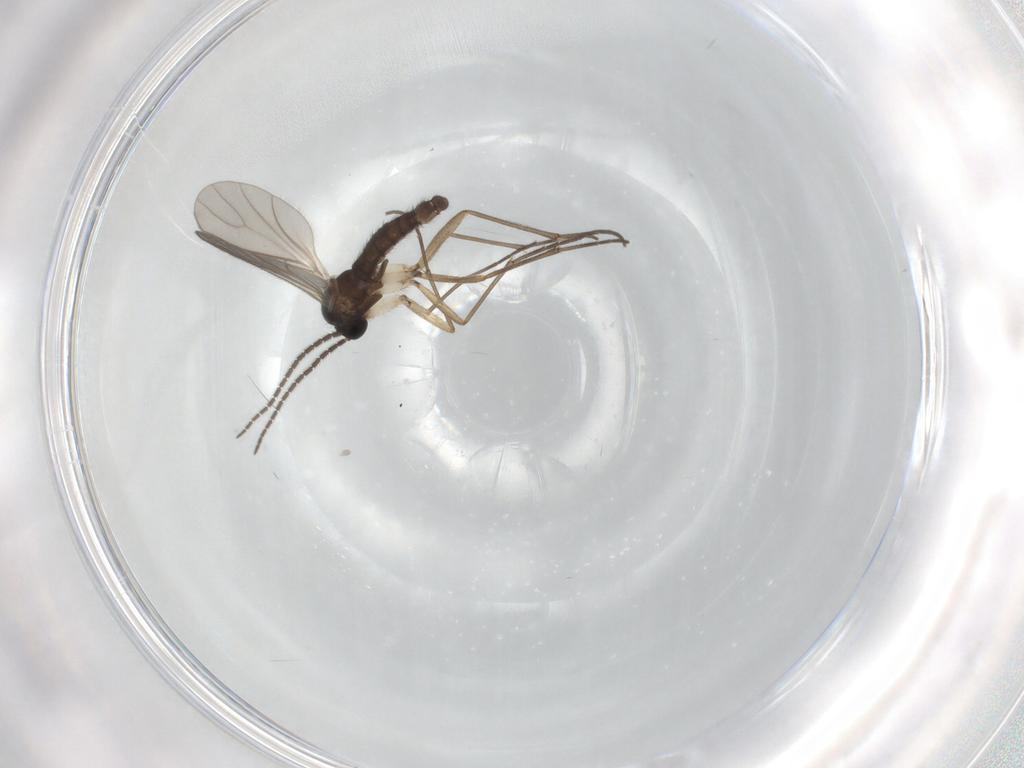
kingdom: Animalia
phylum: Arthropoda
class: Insecta
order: Diptera
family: Sciaridae
